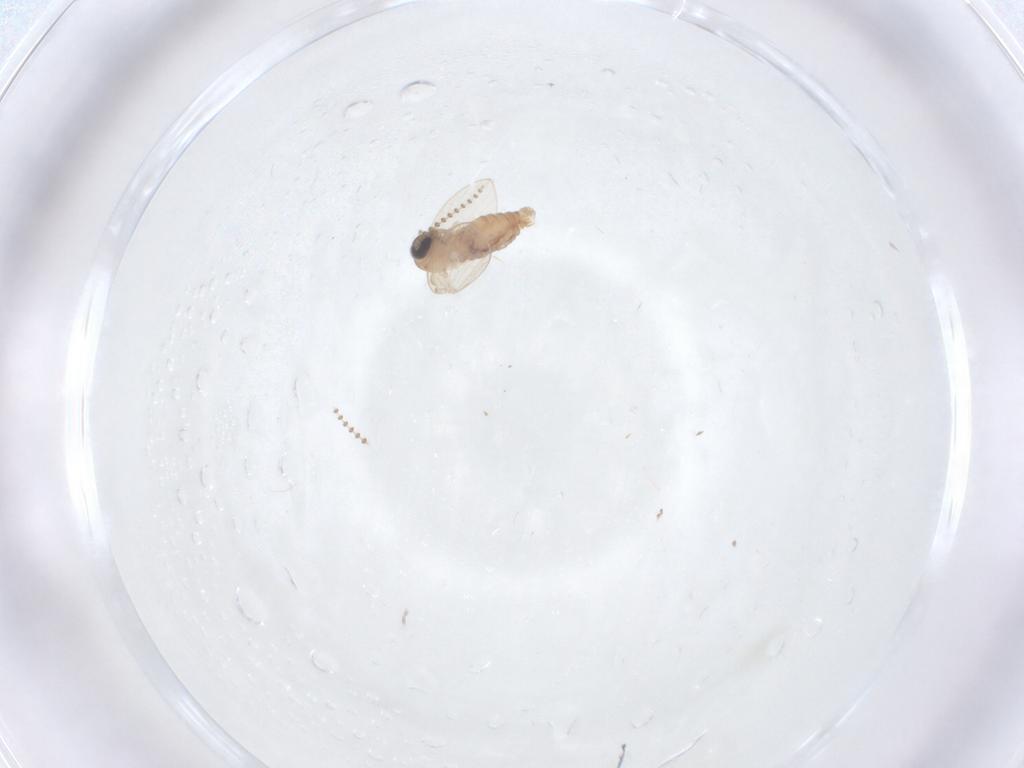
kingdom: Animalia
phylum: Arthropoda
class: Insecta
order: Diptera
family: Psychodidae
